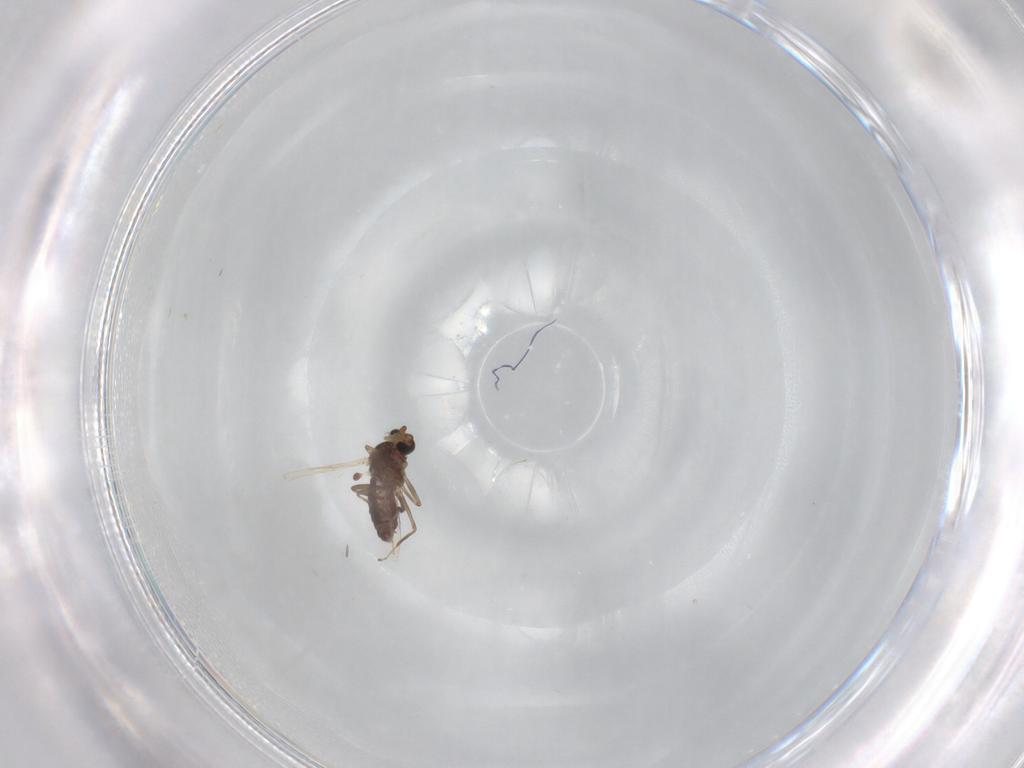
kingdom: Animalia
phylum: Arthropoda
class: Insecta
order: Diptera
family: Ceratopogonidae
